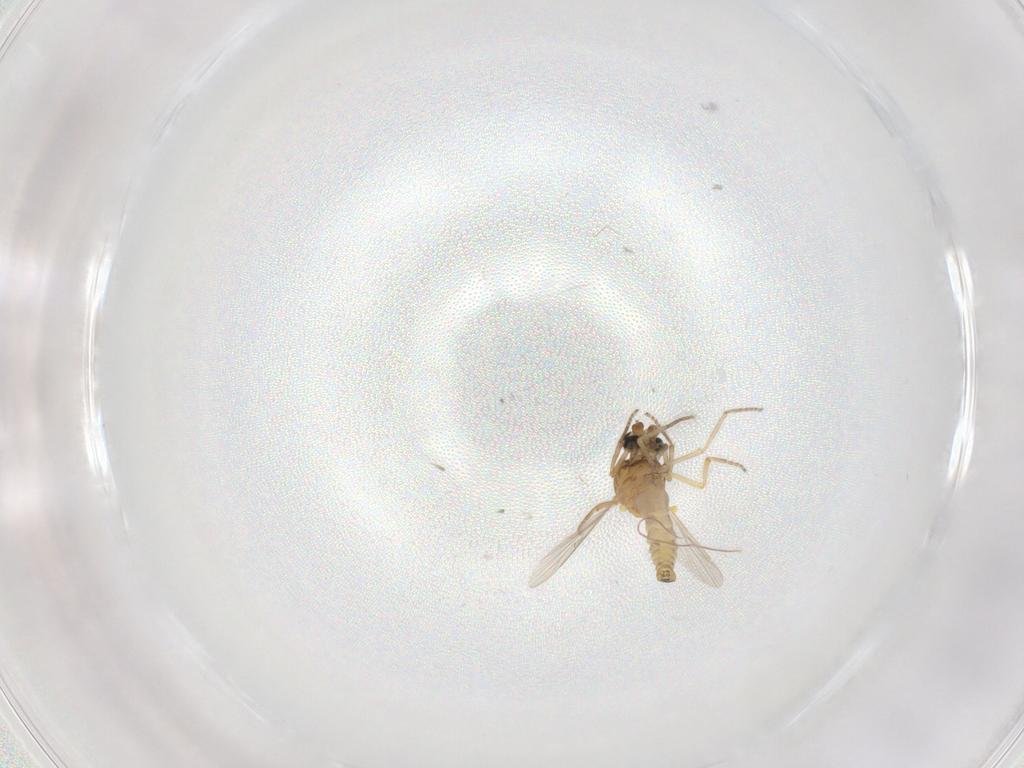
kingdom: Animalia
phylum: Arthropoda
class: Insecta
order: Diptera
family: Ceratopogonidae
